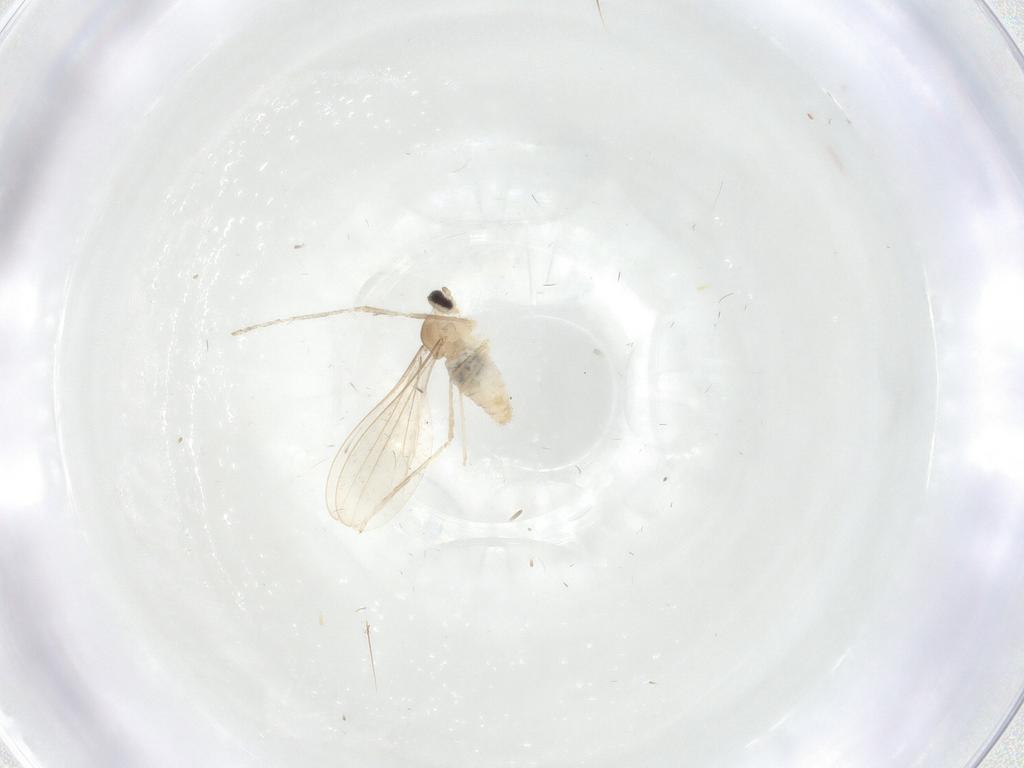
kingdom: Animalia
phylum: Arthropoda
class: Insecta
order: Diptera
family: Cecidomyiidae
